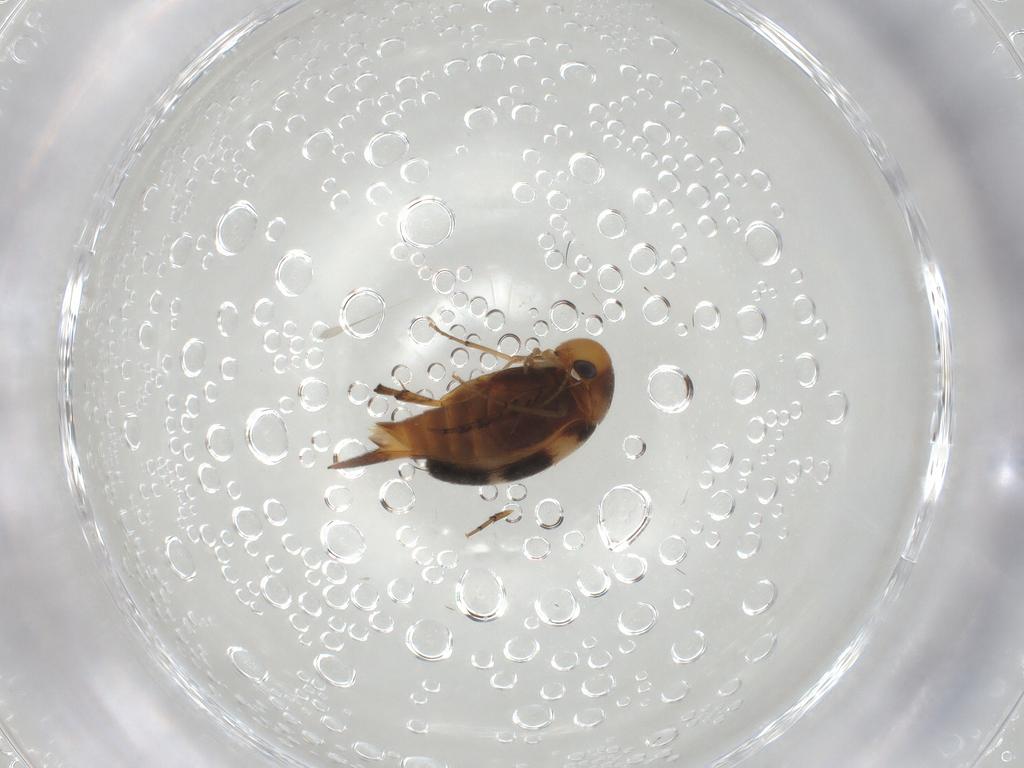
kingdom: Animalia
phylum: Arthropoda
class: Insecta
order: Coleoptera
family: Mordellidae
